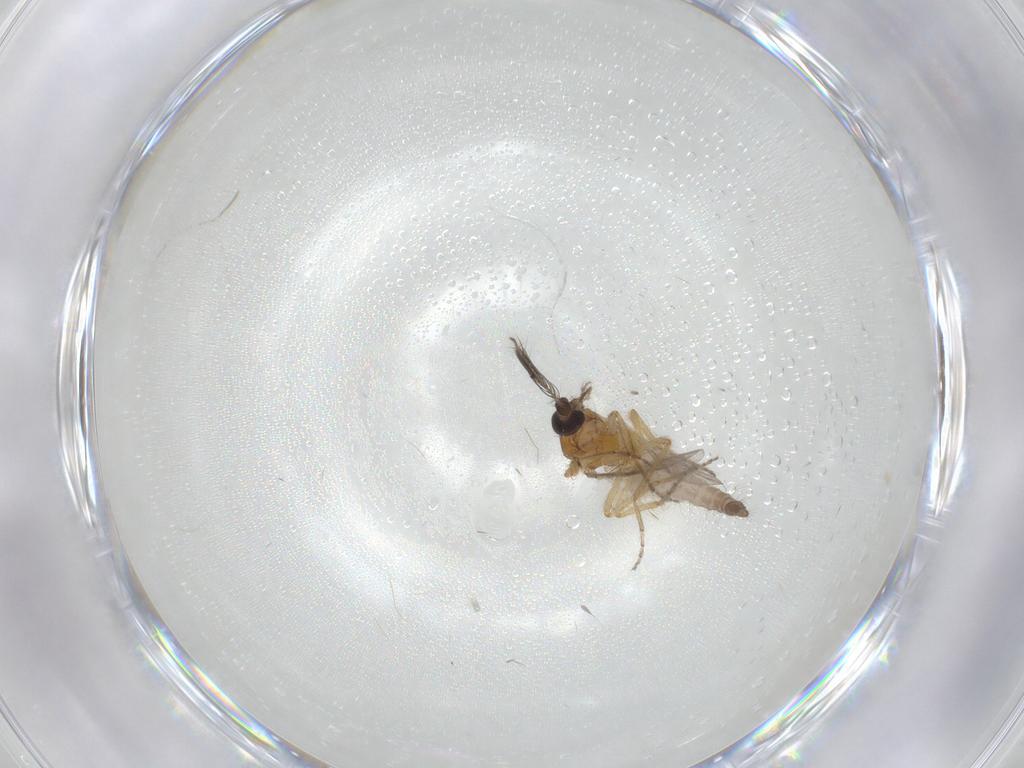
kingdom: Animalia
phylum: Arthropoda
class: Insecta
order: Diptera
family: Ceratopogonidae
